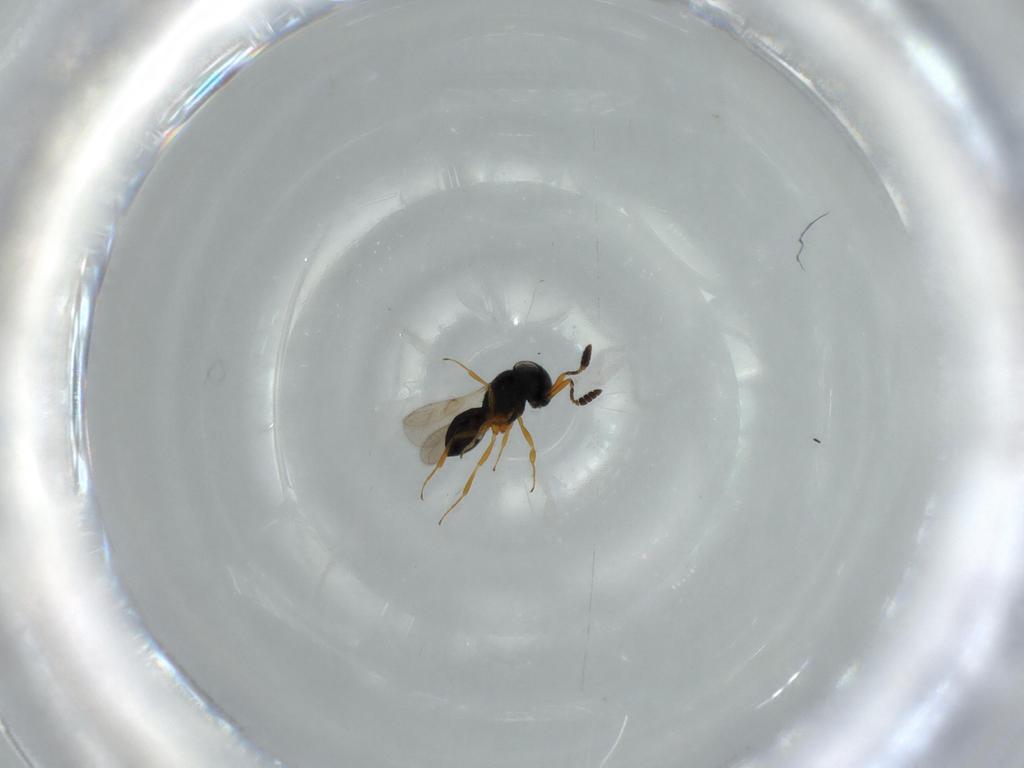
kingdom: Animalia
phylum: Arthropoda
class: Insecta
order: Hymenoptera
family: Scelionidae
